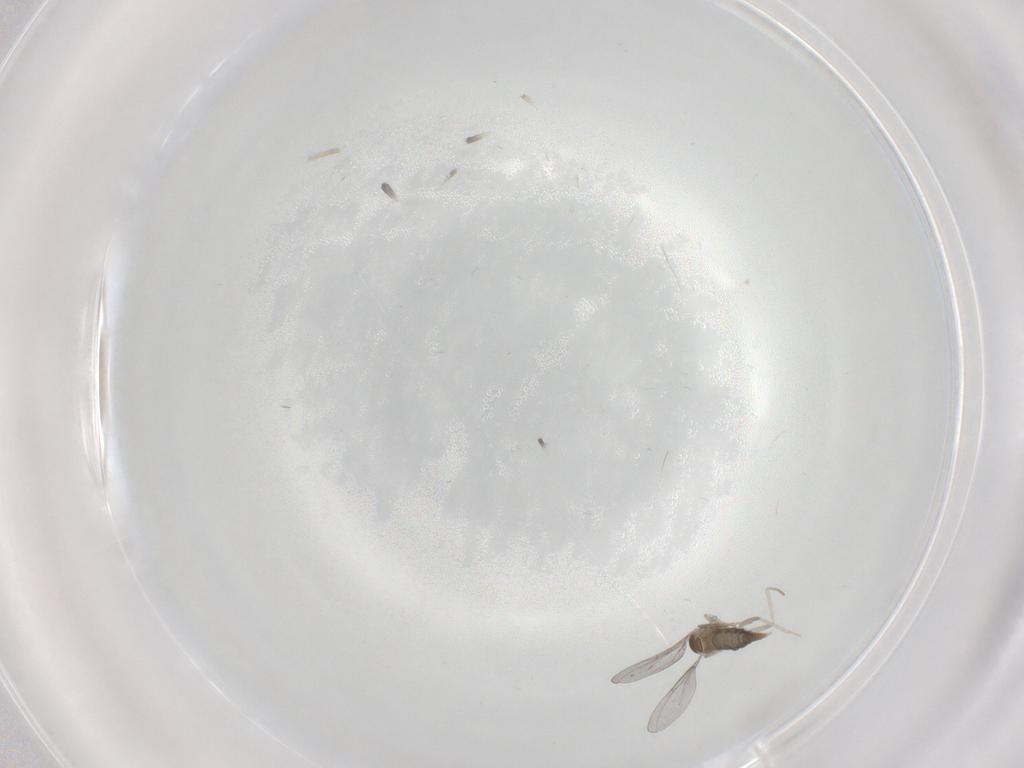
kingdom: Animalia
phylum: Arthropoda
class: Insecta
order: Diptera
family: Cecidomyiidae
